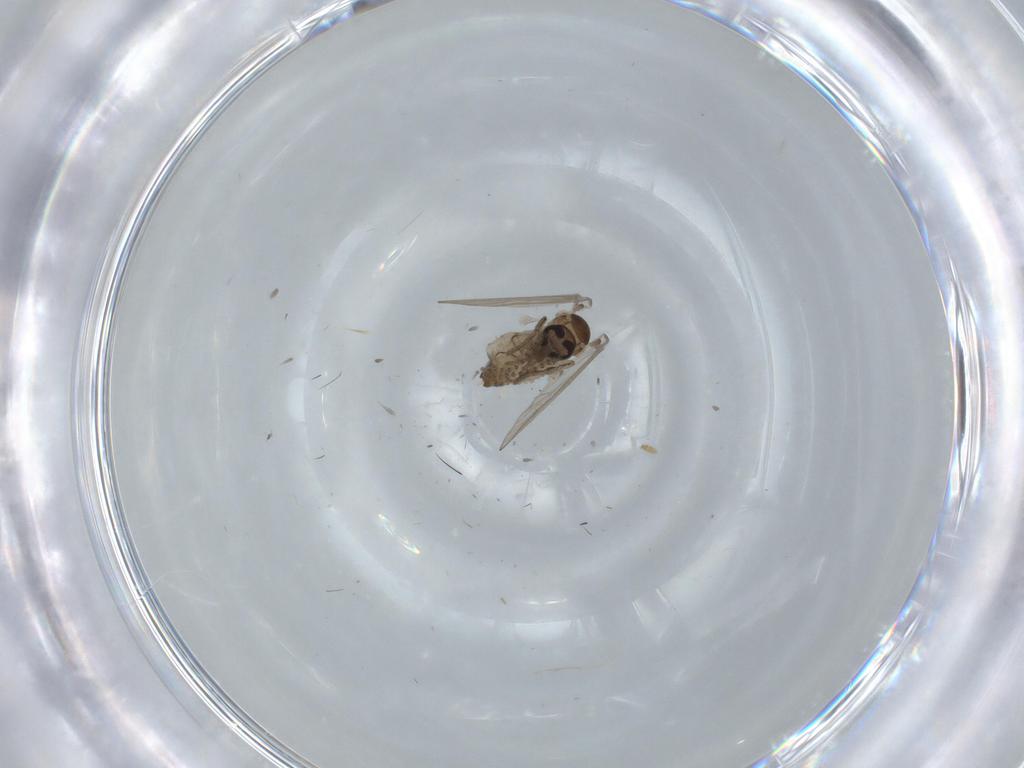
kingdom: Animalia
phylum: Arthropoda
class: Insecta
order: Diptera
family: Psychodidae
